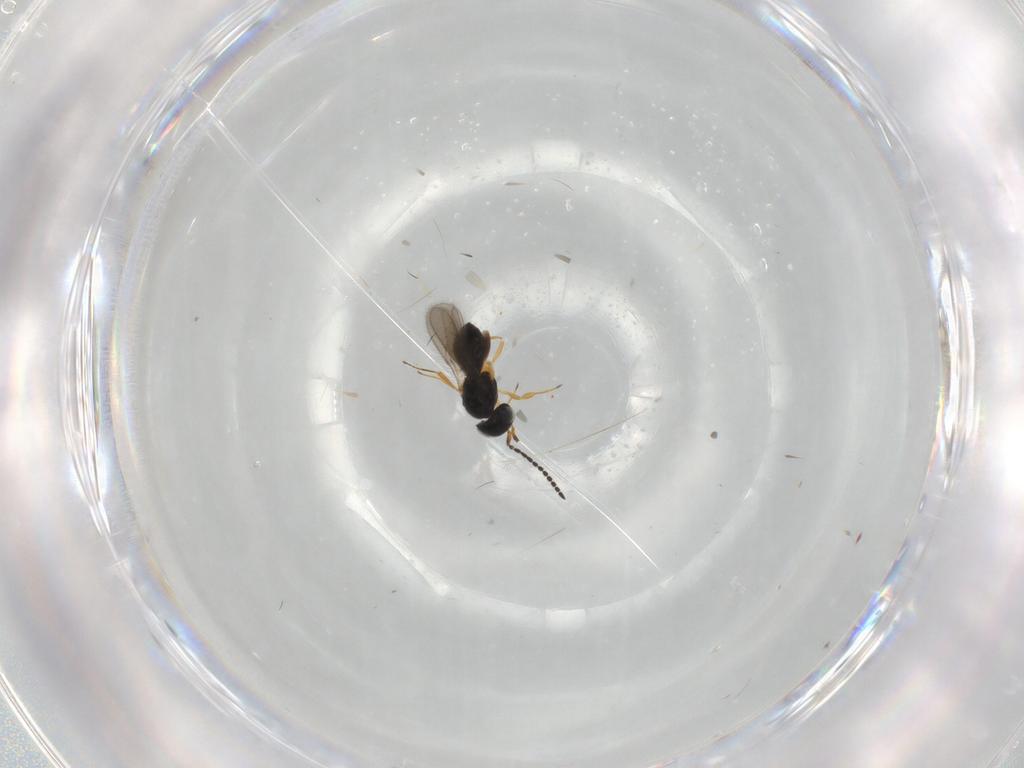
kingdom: Animalia
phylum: Arthropoda
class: Insecta
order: Hymenoptera
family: Scelionidae
